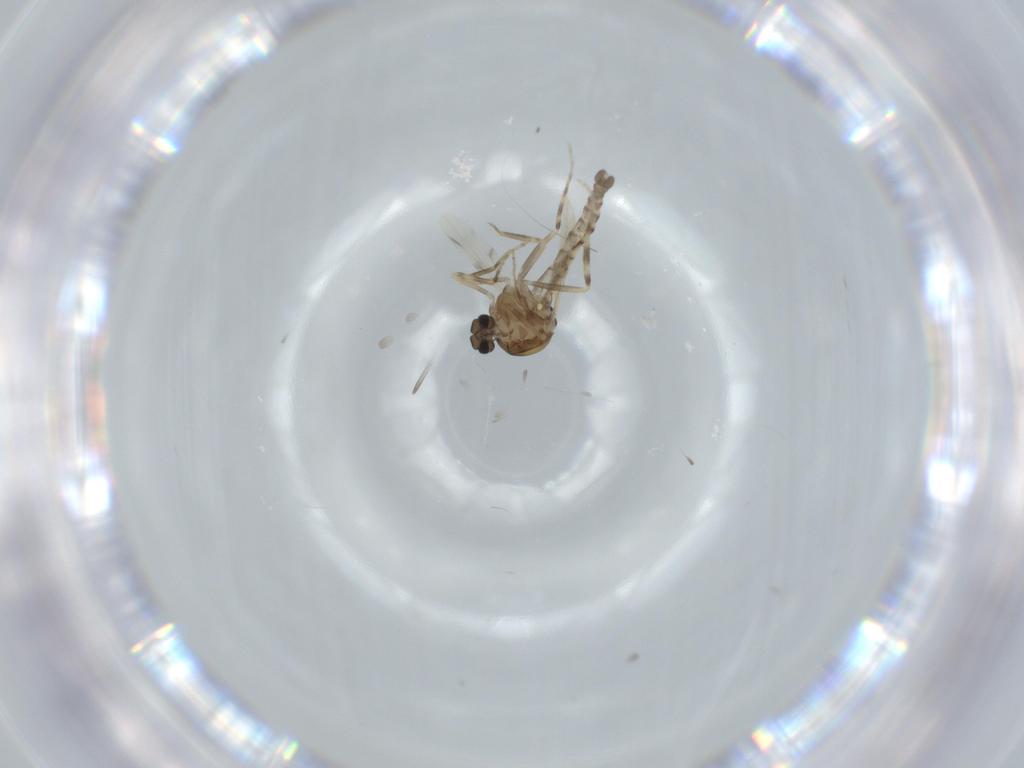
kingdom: Animalia
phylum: Arthropoda
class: Insecta
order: Diptera
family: Ceratopogonidae
